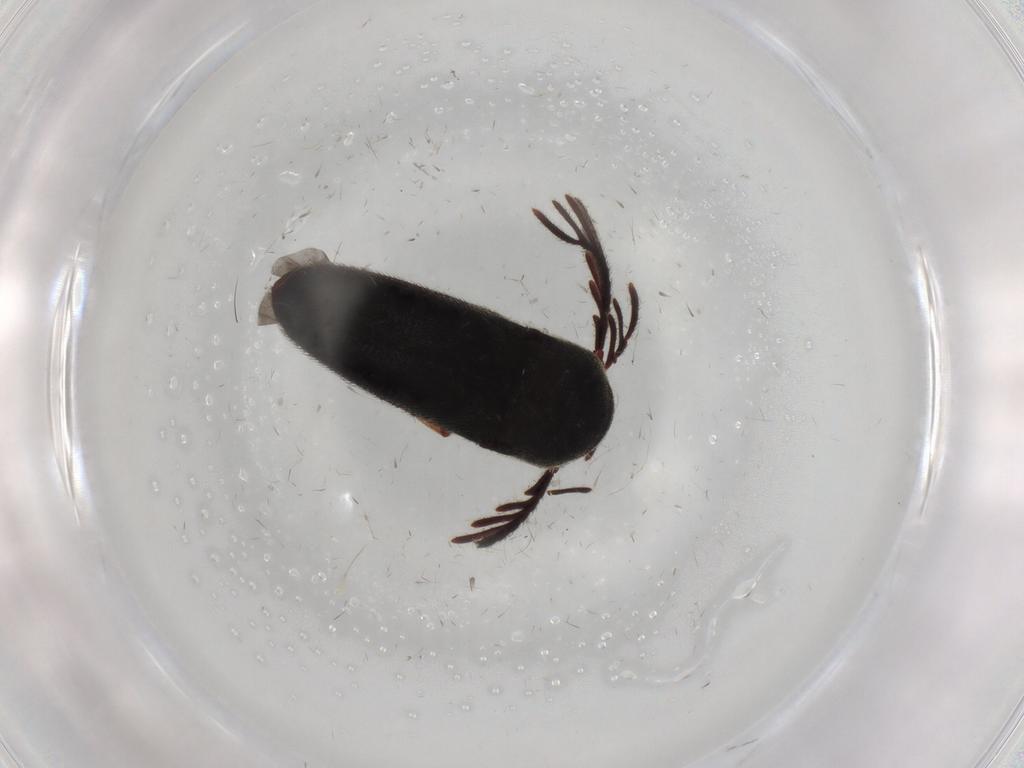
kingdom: Animalia
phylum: Arthropoda
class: Insecta
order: Coleoptera
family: Eucnemidae
